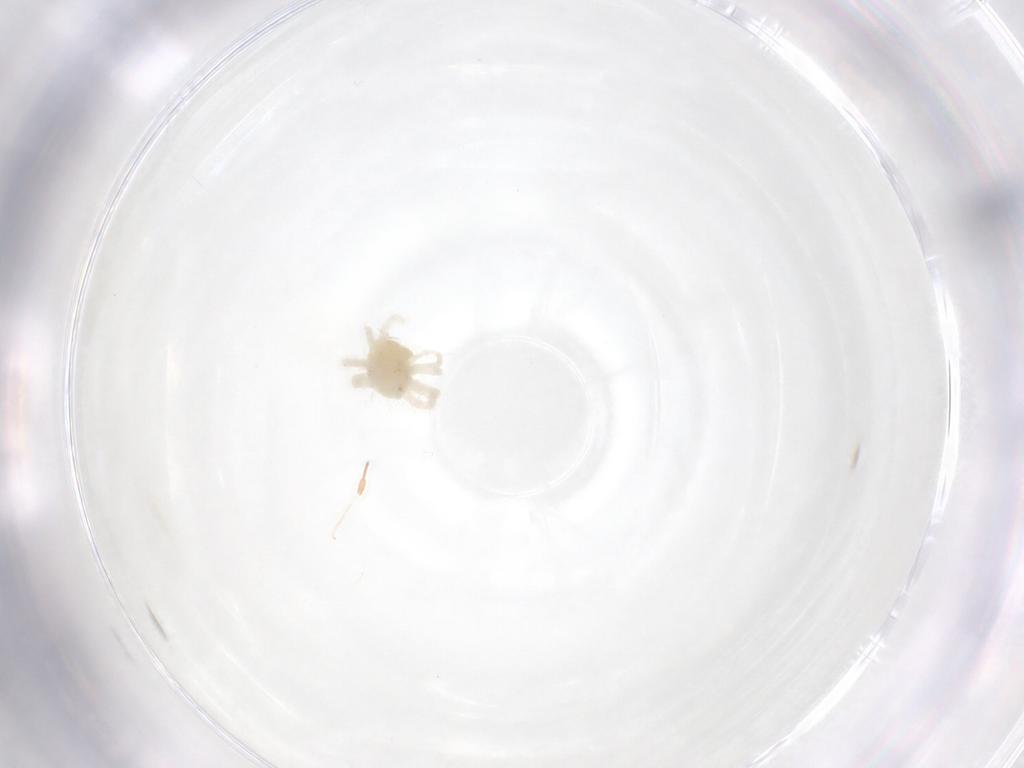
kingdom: Animalia
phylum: Arthropoda
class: Arachnida
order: Trombidiformes
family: Anystidae
